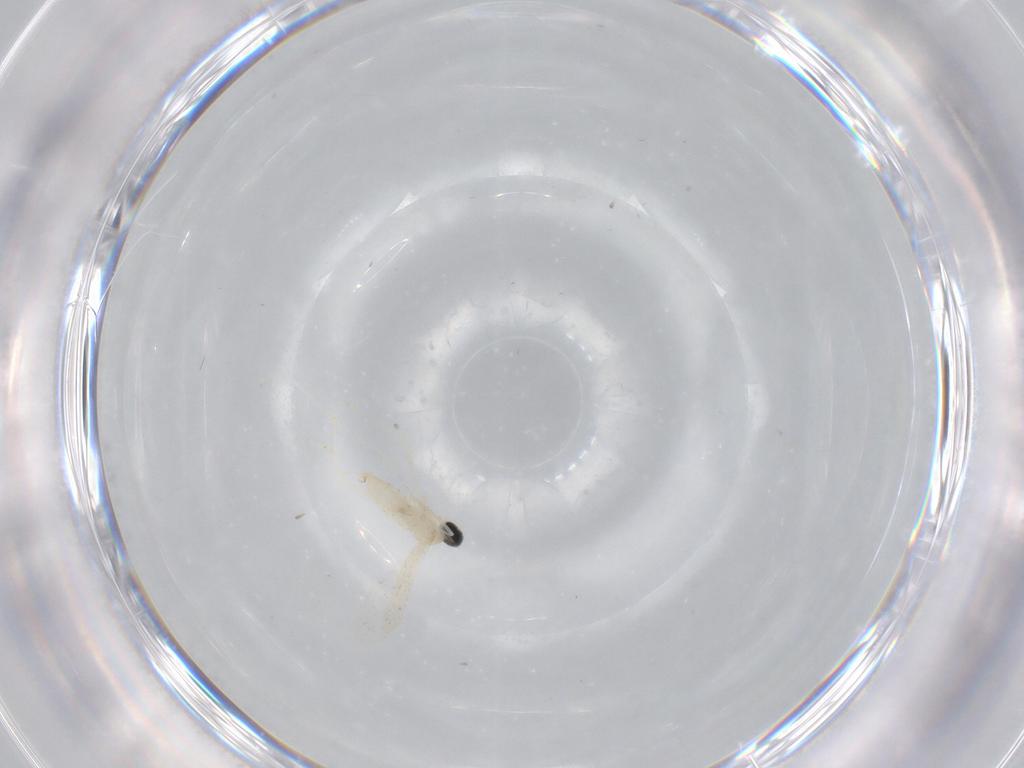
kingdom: Animalia
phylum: Arthropoda
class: Insecta
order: Diptera
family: Cecidomyiidae
